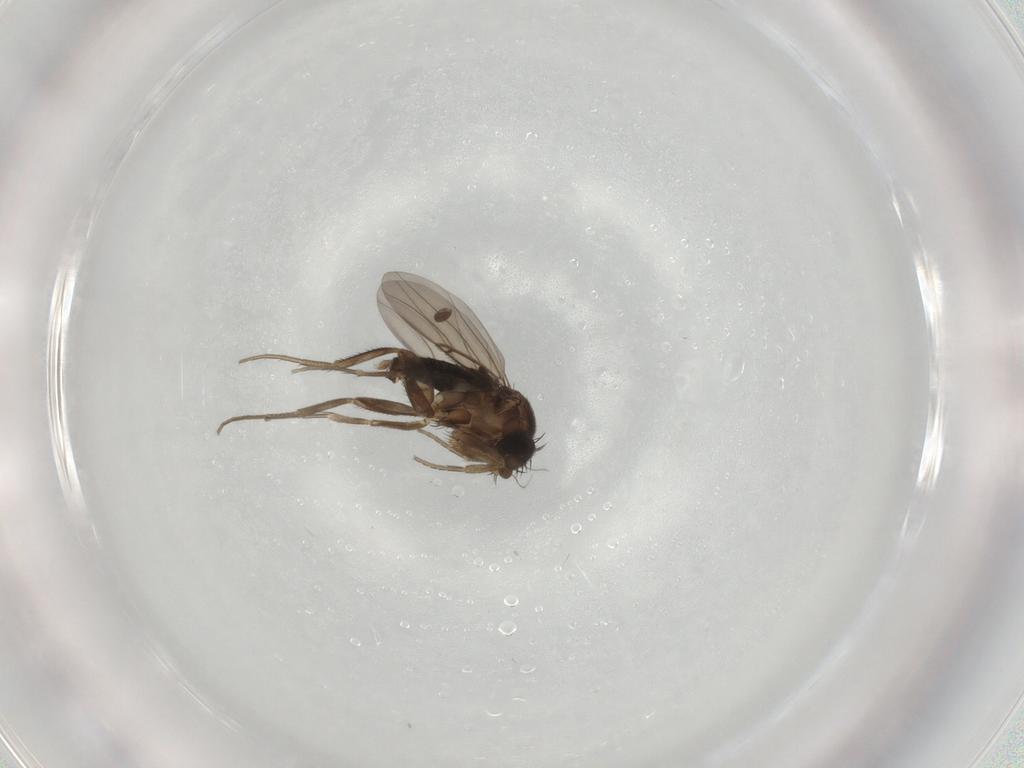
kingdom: Animalia
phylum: Arthropoda
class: Insecta
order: Diptera
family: Phoridae
